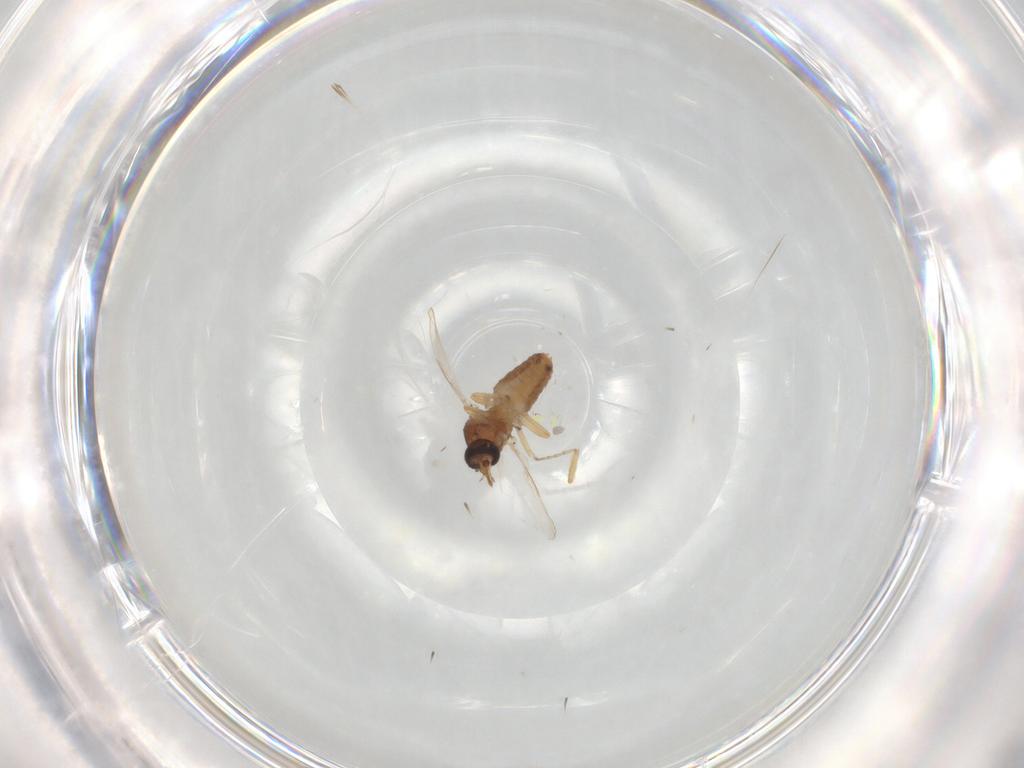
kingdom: Animalia
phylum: Arthropoda
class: Insecta
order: Diptera
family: Ceratopogonidae
